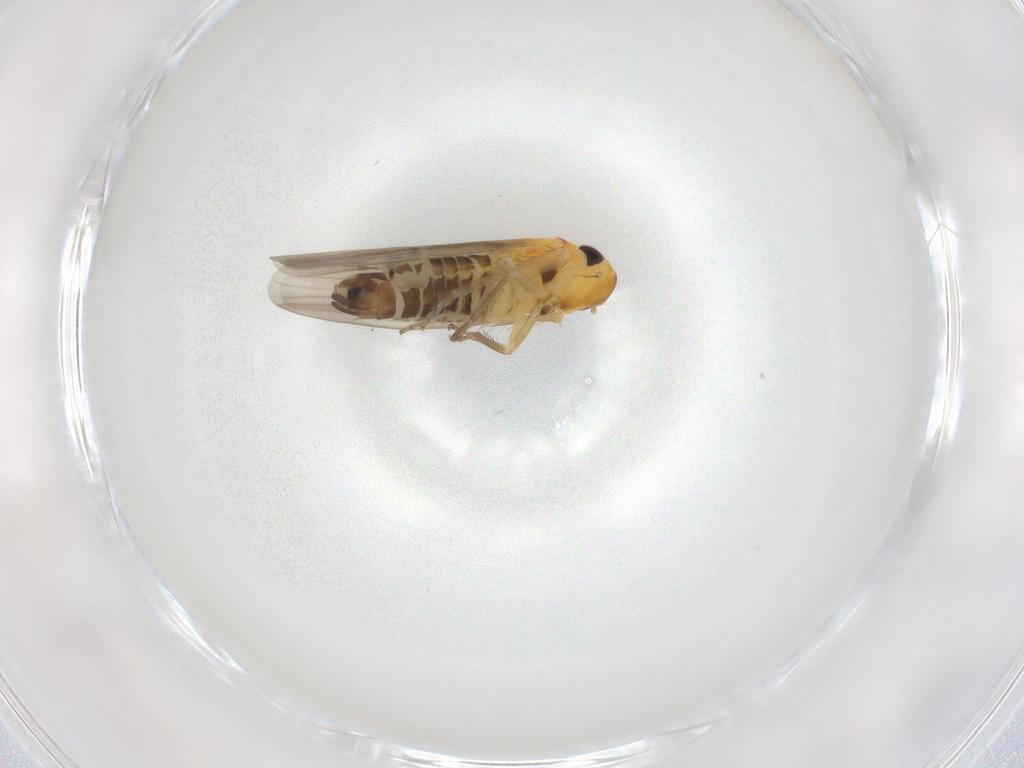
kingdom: Animalia
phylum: Arthropoda
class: Insecta
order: Hemiptera
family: Cicadellidae
